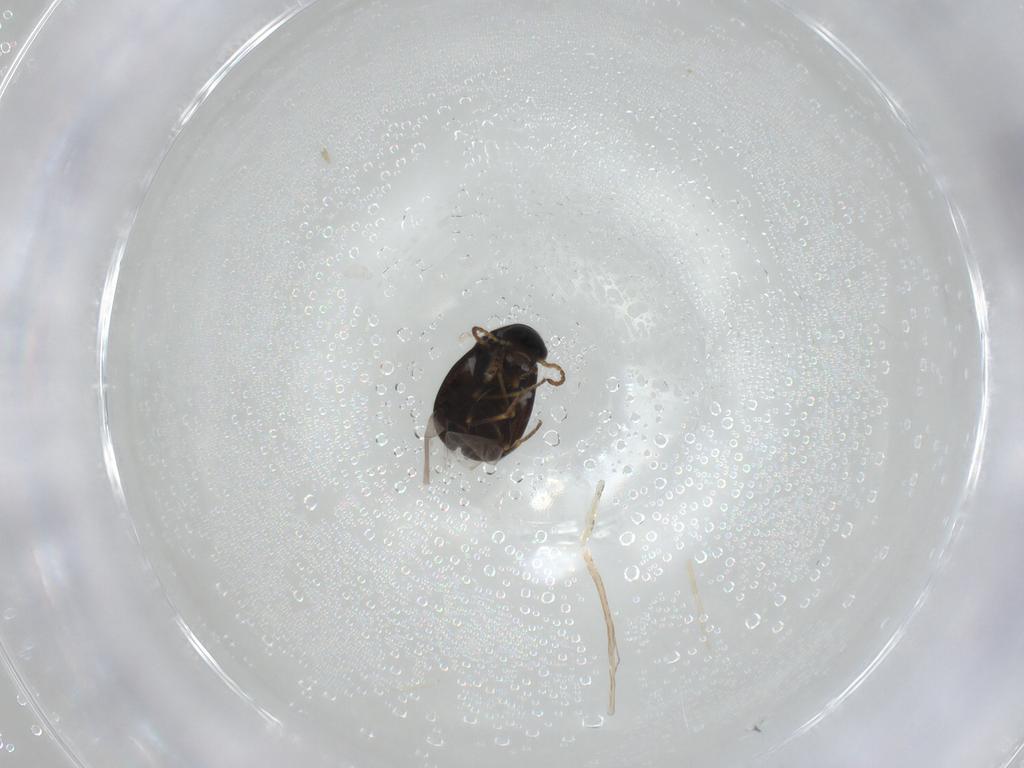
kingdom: Animalia
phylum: Arthropoda
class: Insecta
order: Coleoptera
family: Melyridae
